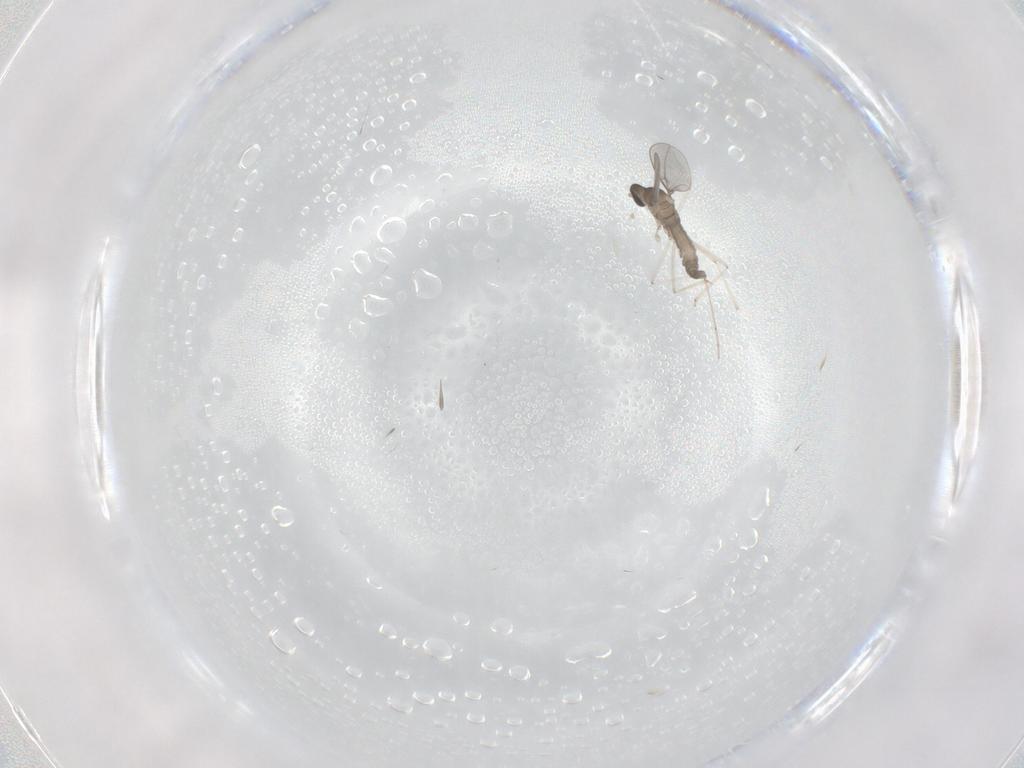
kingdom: Animalia
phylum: Arthropoda
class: Insecta
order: Diptera
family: Cecidomyiidae
